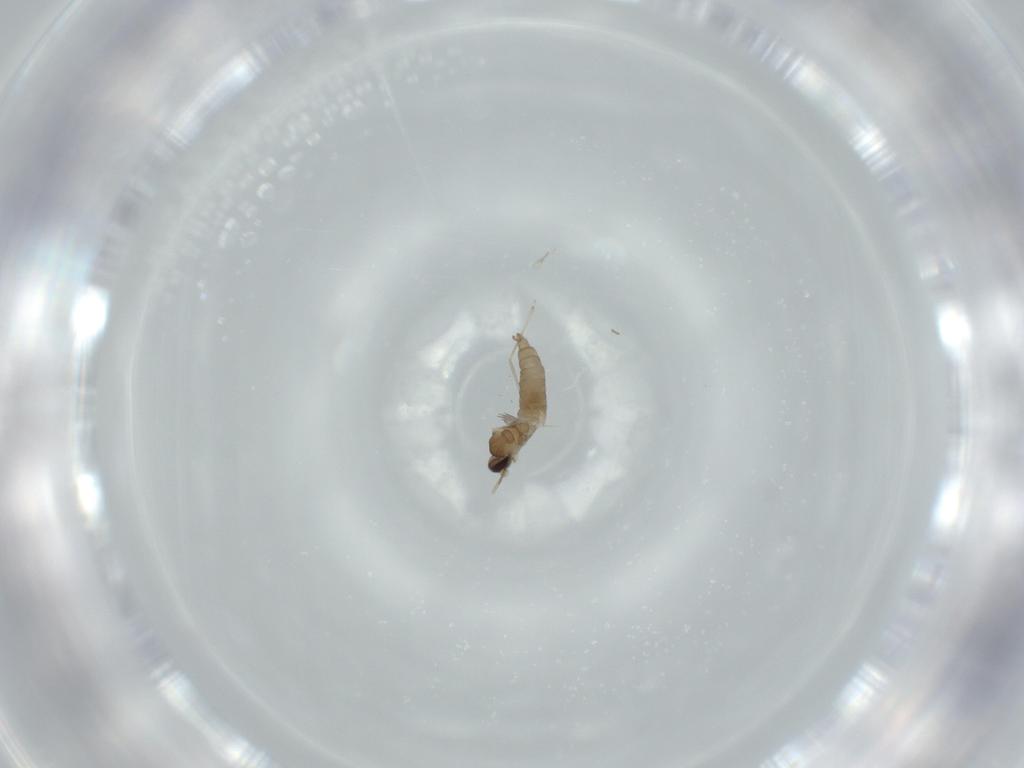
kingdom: Animalia
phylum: Arthropoda
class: Insecta
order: Diptera
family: Cecidomyiidae
